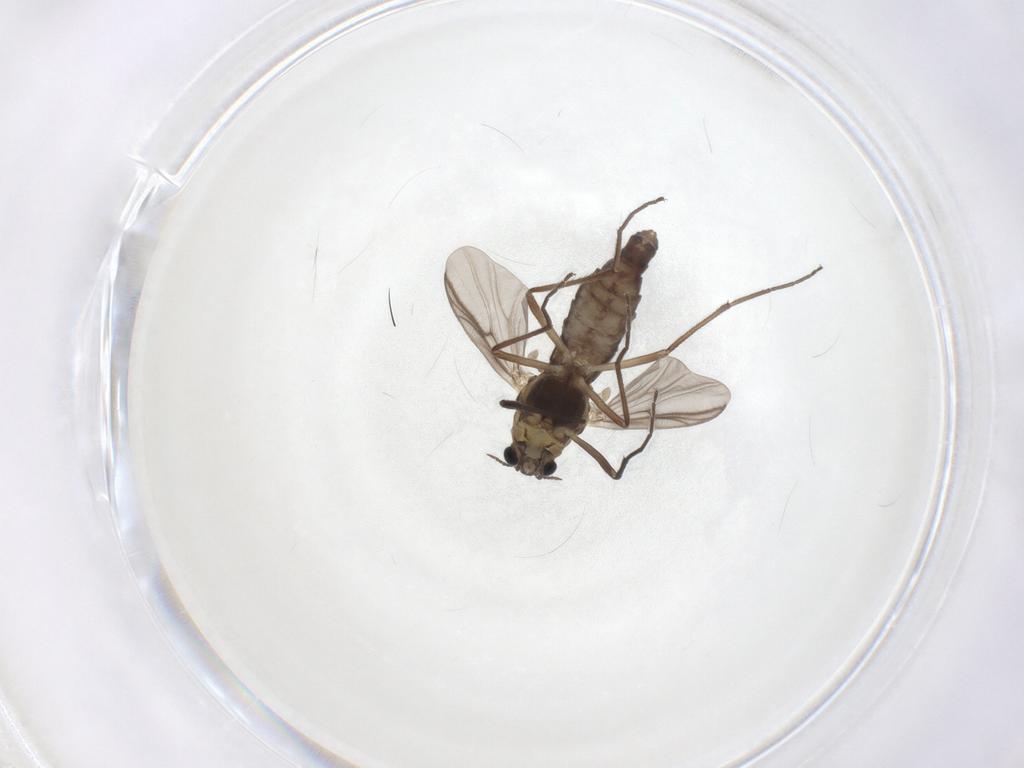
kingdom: Animalia
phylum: Arthropoda
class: Insecta
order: Diptera
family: Chironomidae
